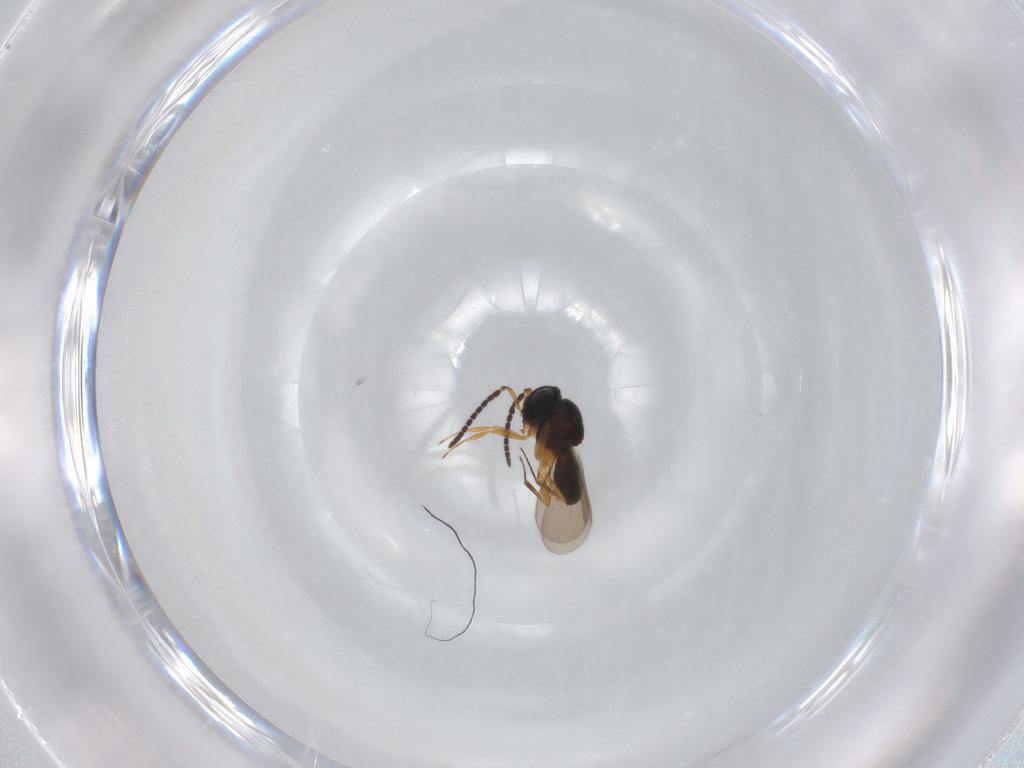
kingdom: Animalia
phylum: Arthropoda
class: Insecta
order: Hymenoptera
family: Scelionidae
